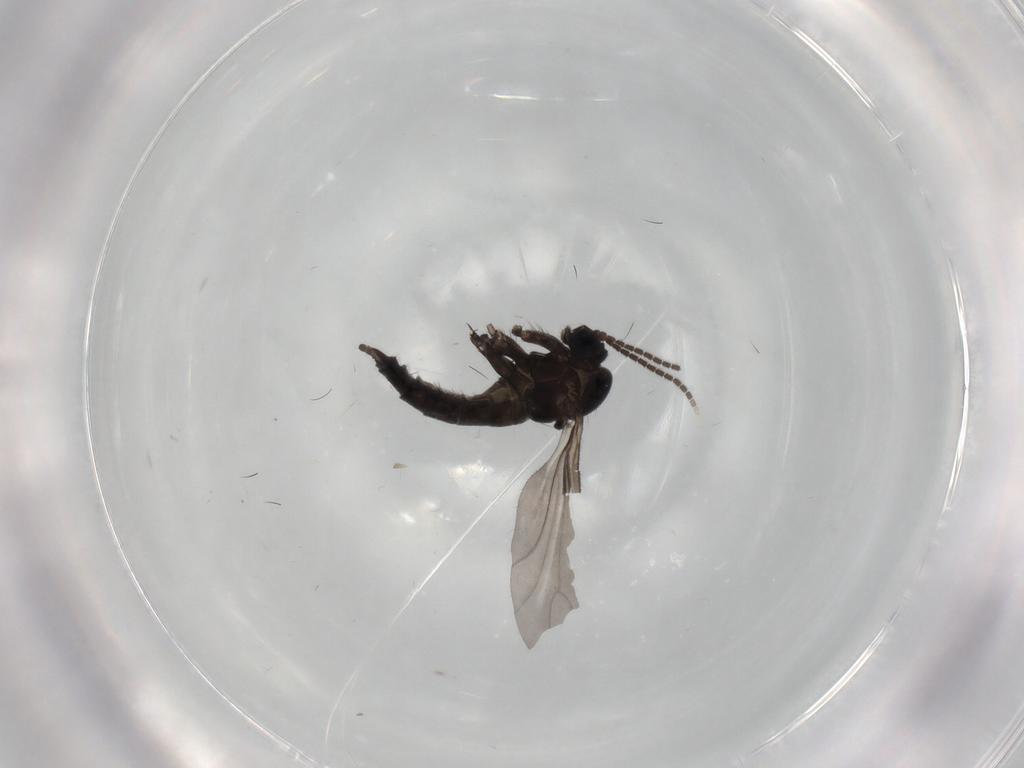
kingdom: Animalia
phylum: Arthropoda
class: Insecta
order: Diptera
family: Sciaridae
